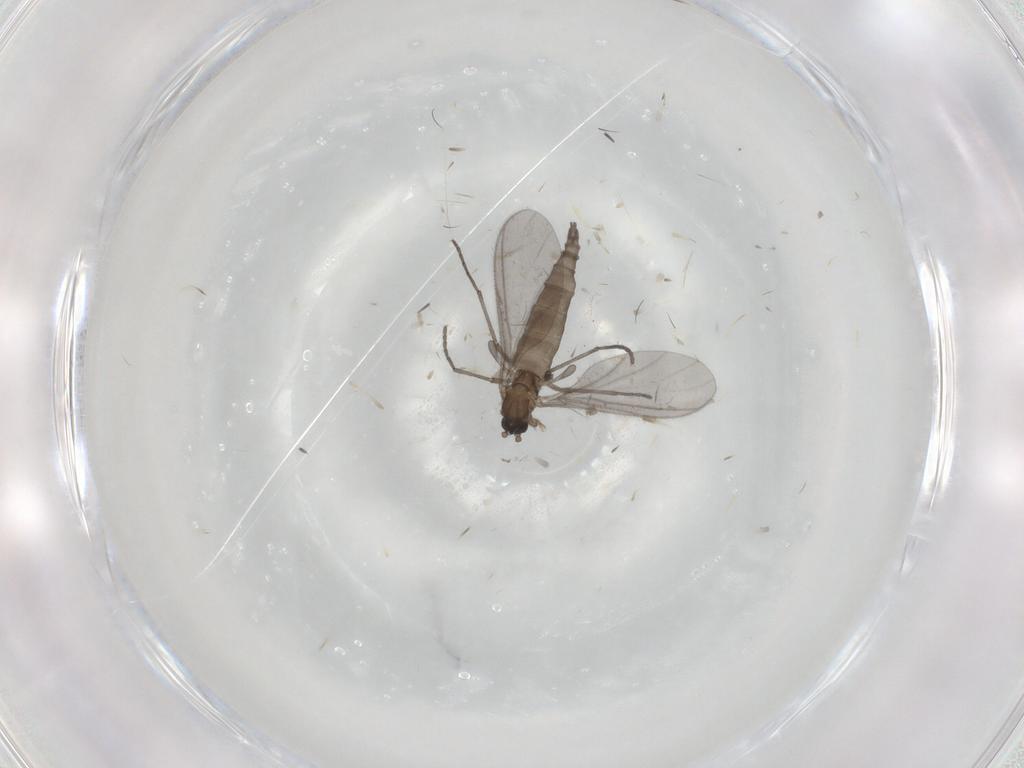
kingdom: Animalia
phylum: Arthropoda
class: Insecta
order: Diptera
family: Sciaridae
